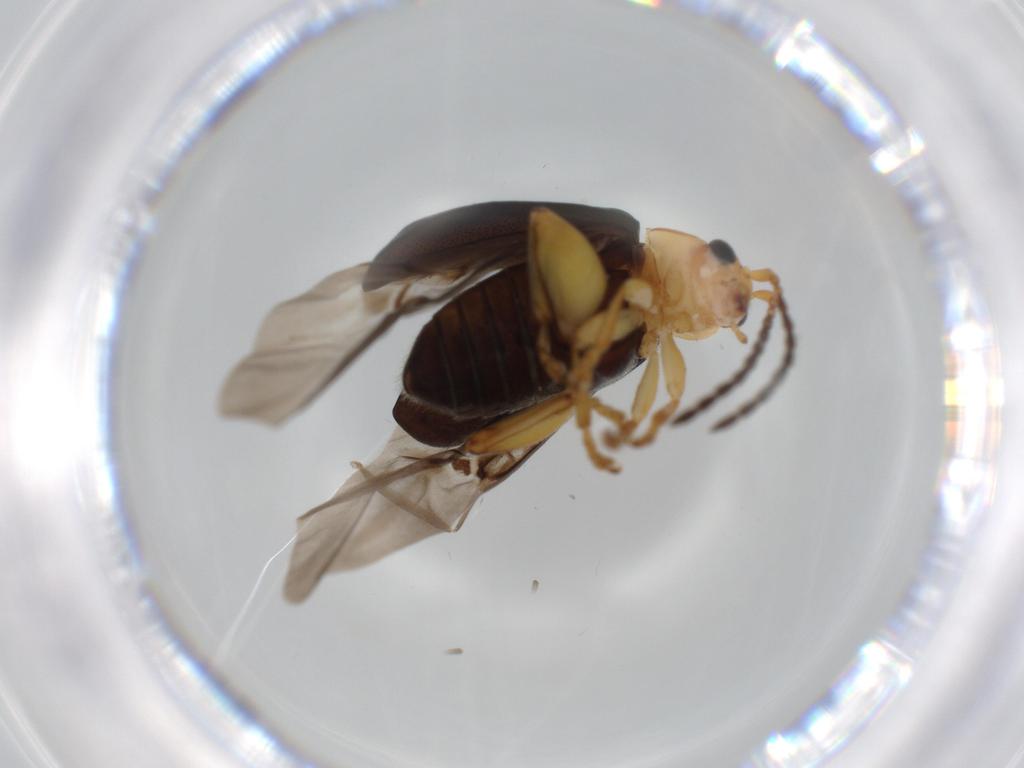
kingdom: Animalia
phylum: Arthropoda
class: Insecta
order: Coleoptera
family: Chrysomelidae
